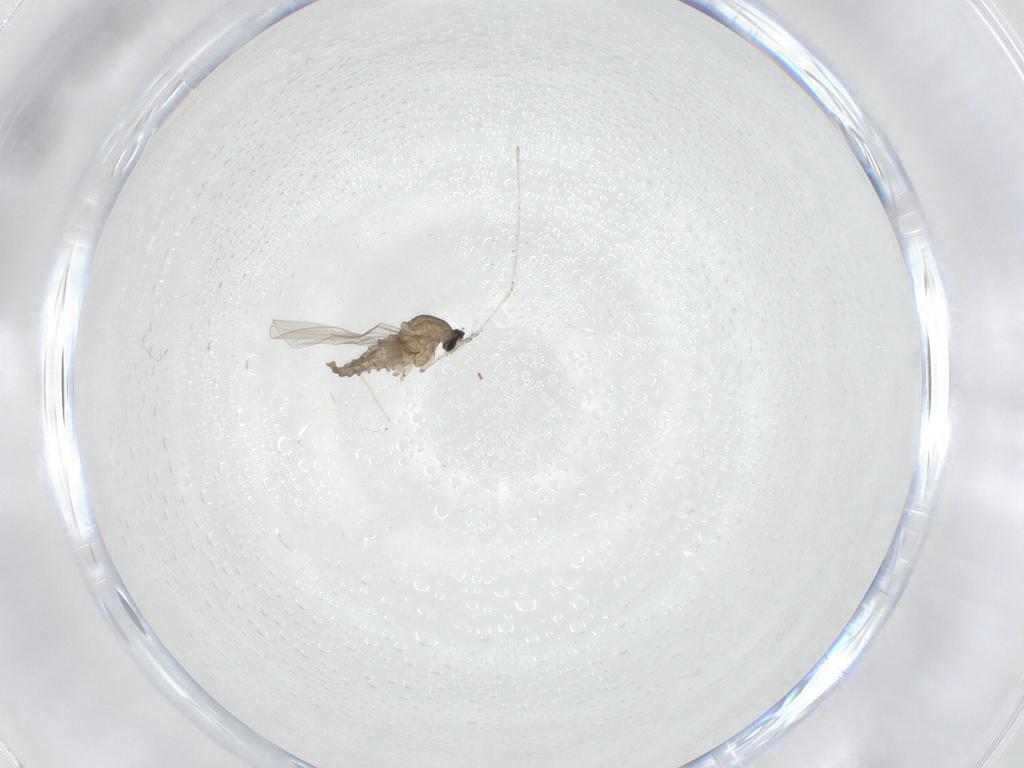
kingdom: Animalia
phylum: Arthropoda
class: Insecta
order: Diptera
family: Cecidomyiidae
